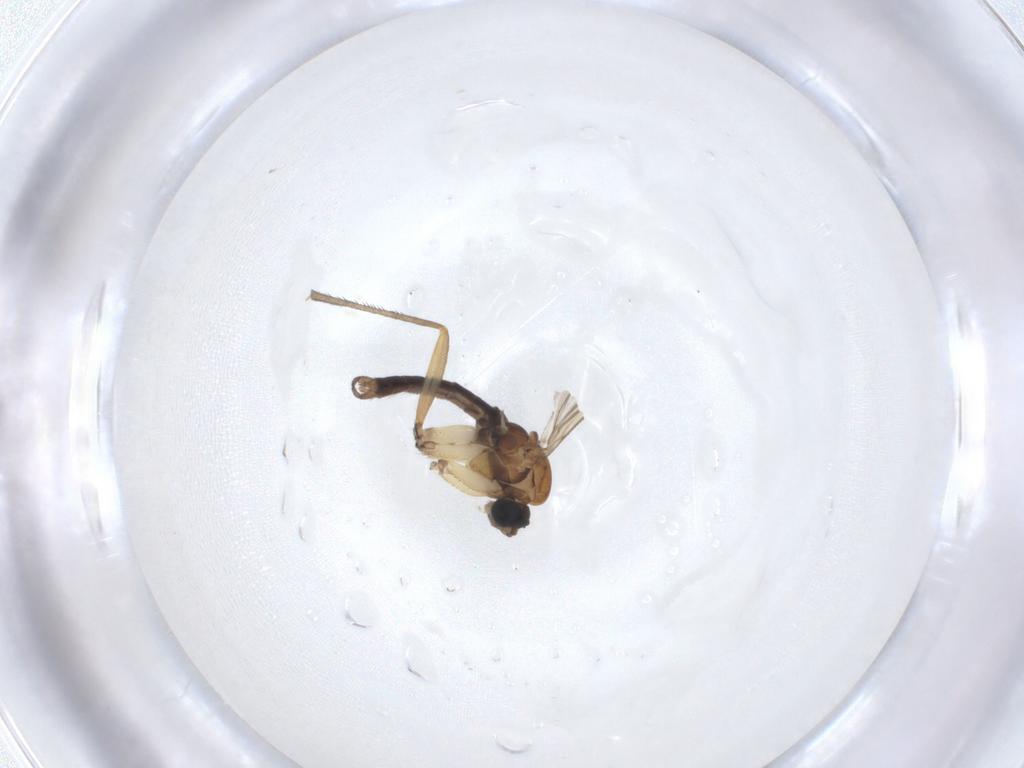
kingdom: Animalia
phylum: Arthropoda
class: Insecta
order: Diptera
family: Sciaridae
